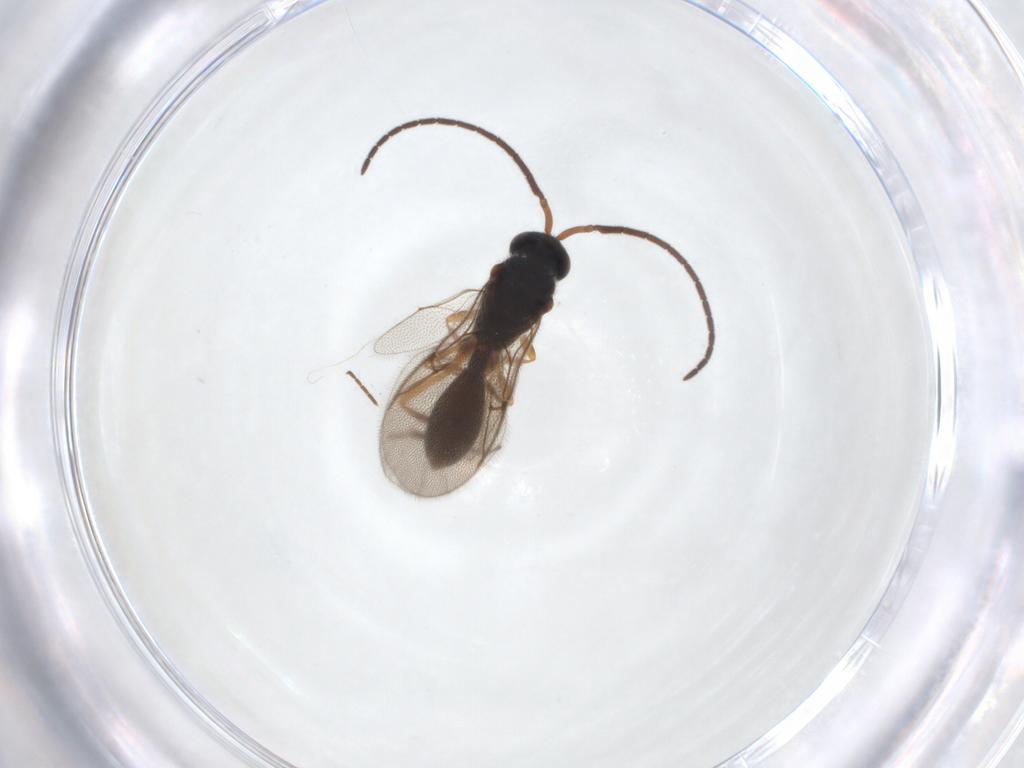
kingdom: Animalia
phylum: Arthropoda
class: Insecta
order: Hymenoptera
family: Diapriidae
